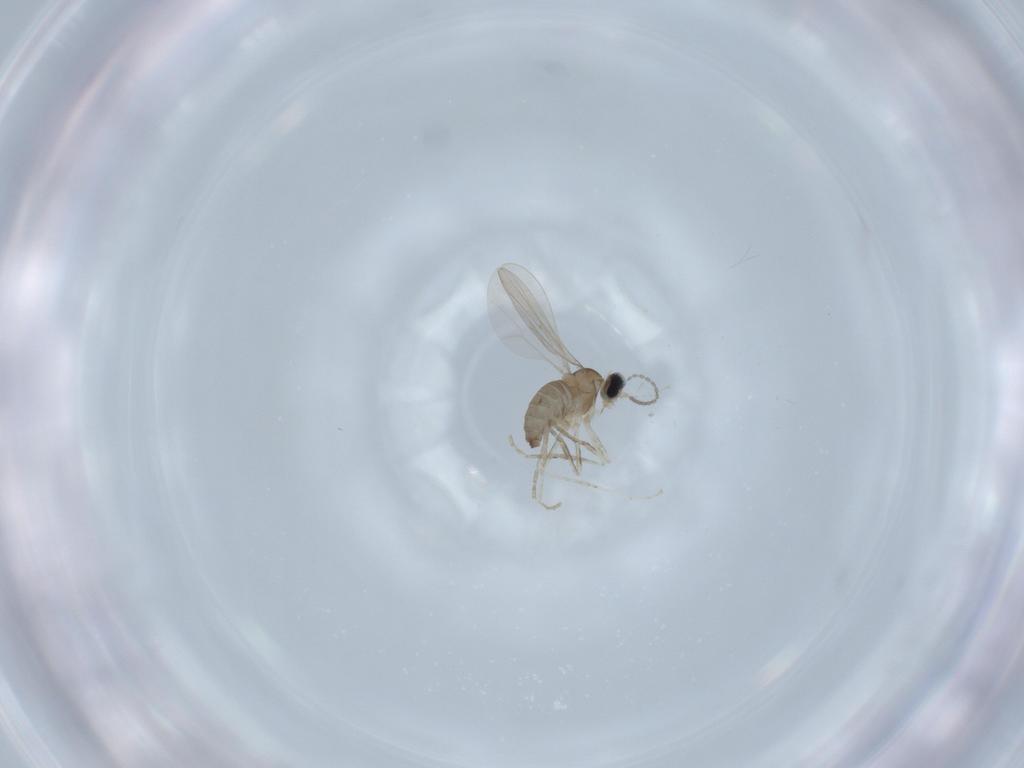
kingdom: Animalia
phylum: Arthropoda
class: Insecta
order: Diptera
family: Cecidomyiidae
